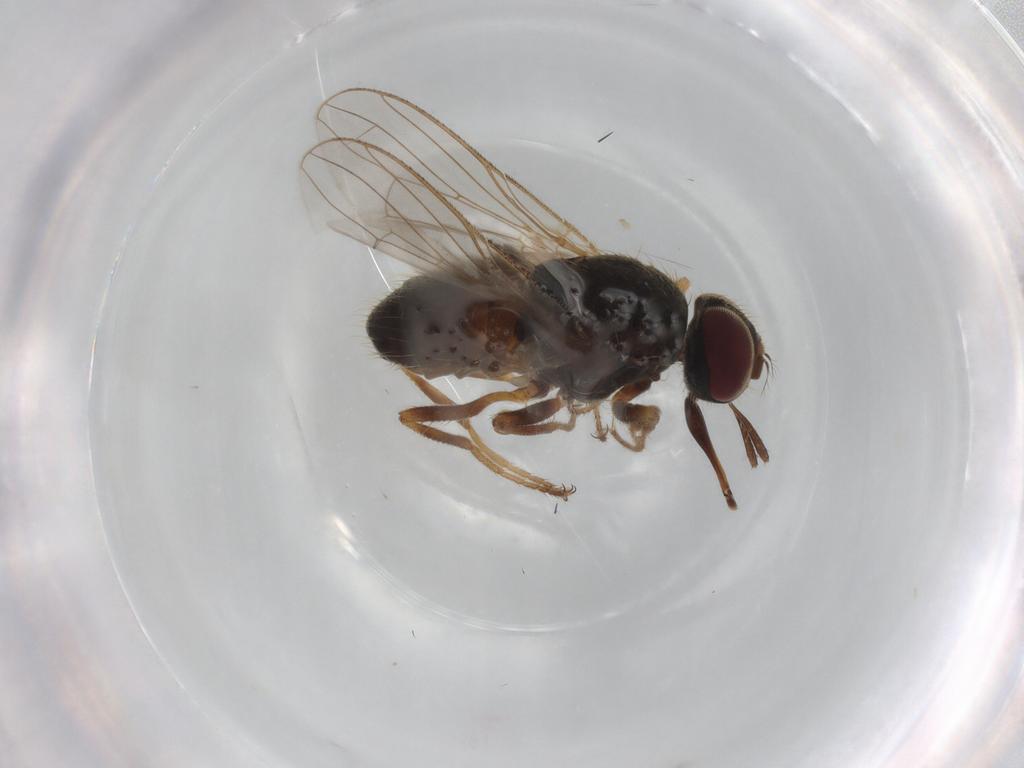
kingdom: Animalia
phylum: Arthropoda
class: Insecta
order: Diptera
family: Muscidae
